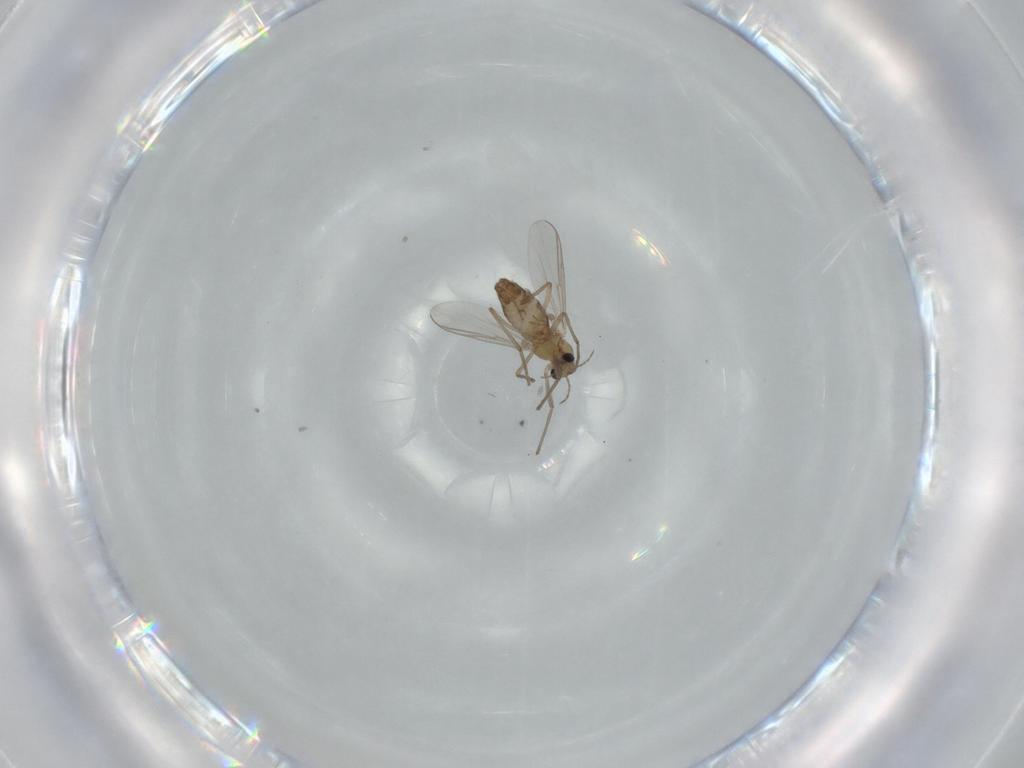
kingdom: Animalia
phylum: Arthropoda
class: Insecta
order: Diptera
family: Chironomidae
